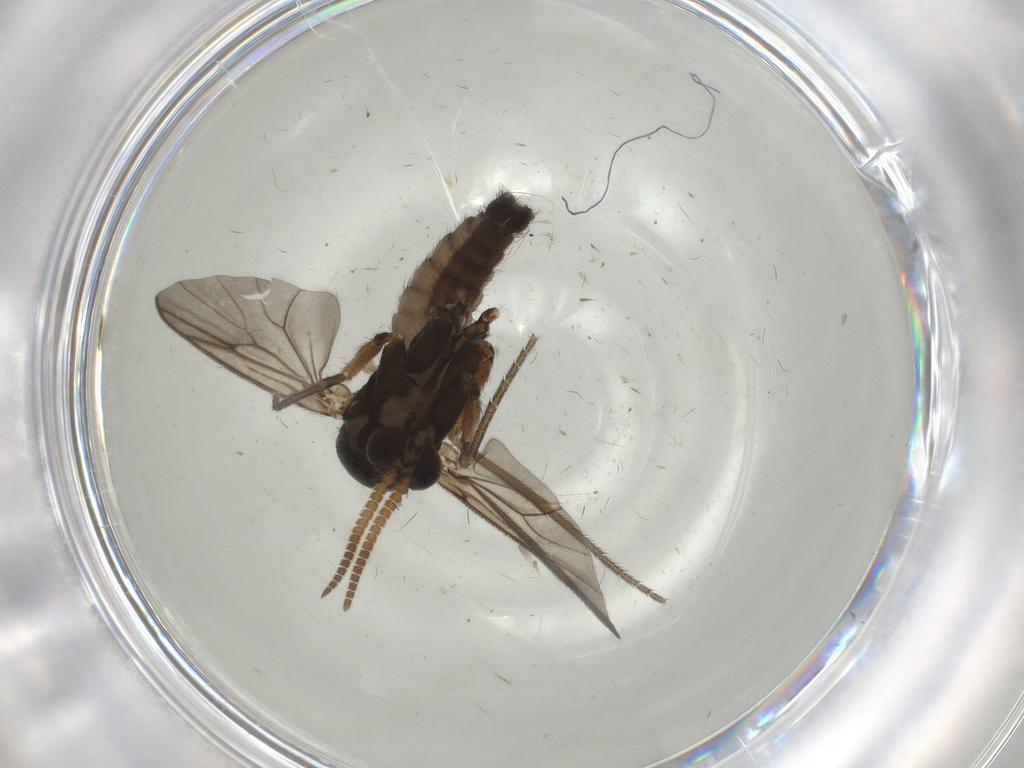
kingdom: Animalia
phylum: Arthropoda
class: Insecta
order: Diptera
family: Mycetophilidae
